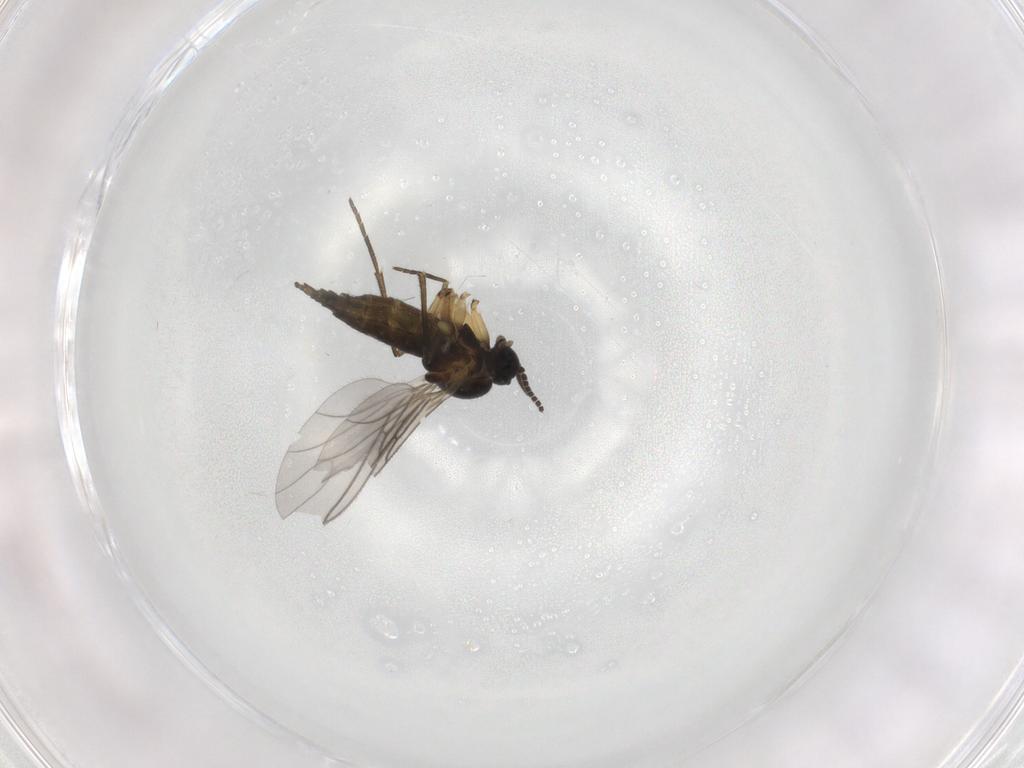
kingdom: Animalia
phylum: Arthropoda
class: Insecta
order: Diptera
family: Sciaridae
